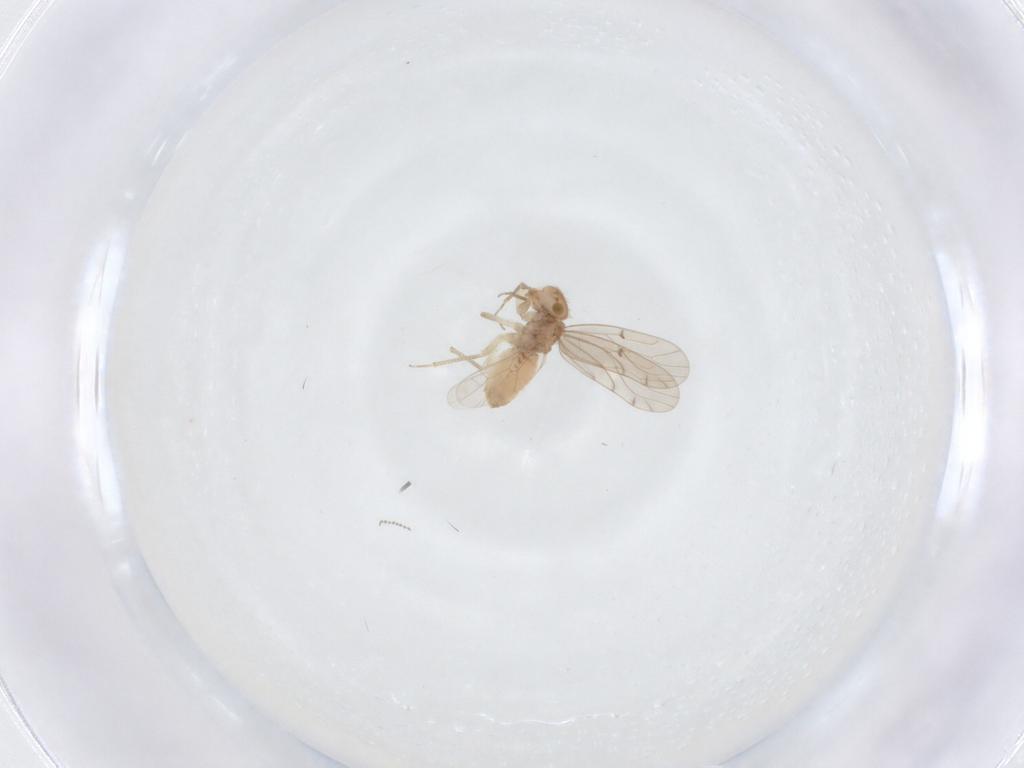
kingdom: Animalia
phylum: Arthropoda
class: Insecta
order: Psocodea
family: Ectopsocidae
